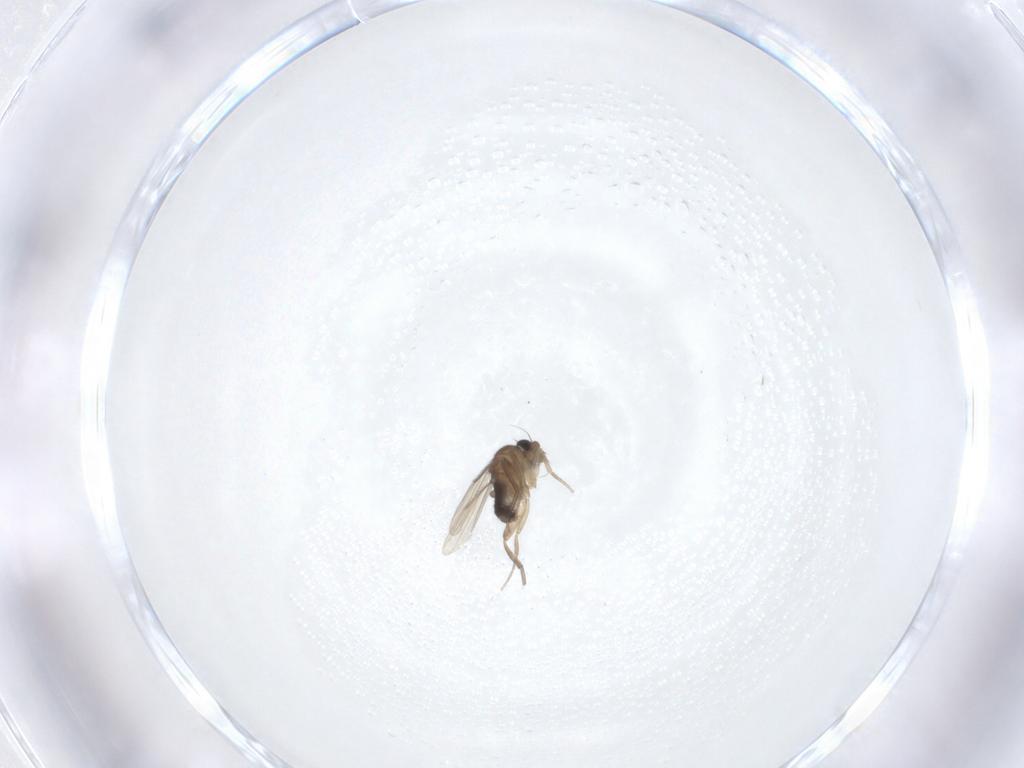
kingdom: Animalia
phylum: Arthropoda
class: Insecta
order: Diptera
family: Phoridae
